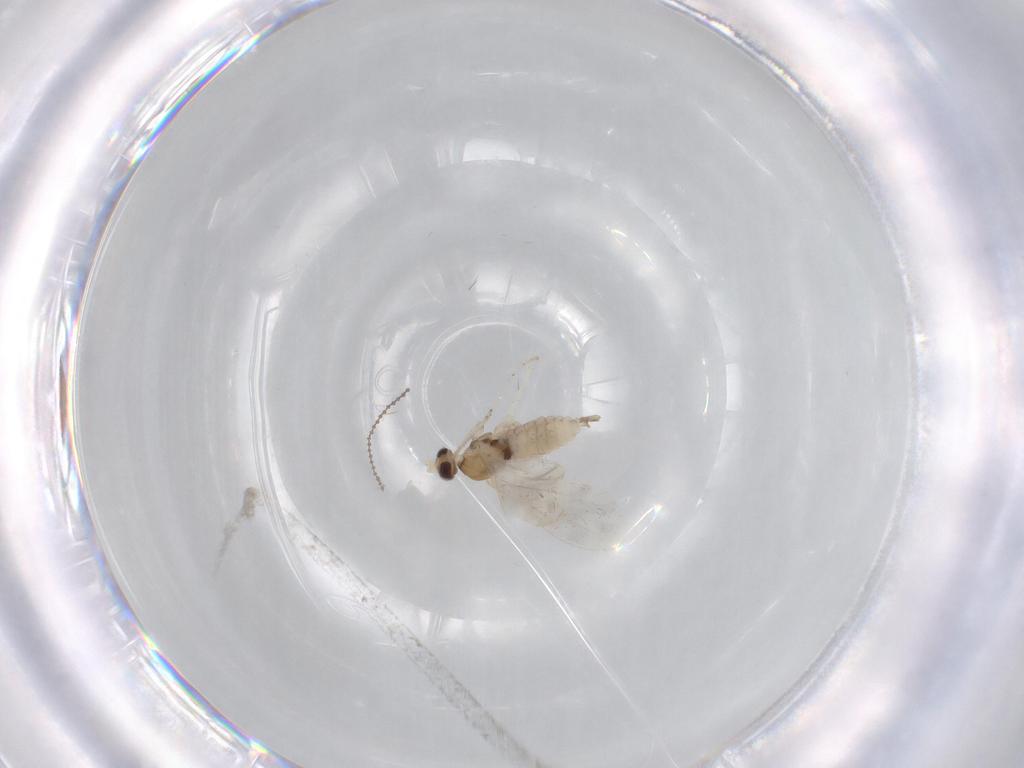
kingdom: Animalia
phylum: Arthropoda
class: Insecta
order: Diptera
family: Cecidomyiidae
